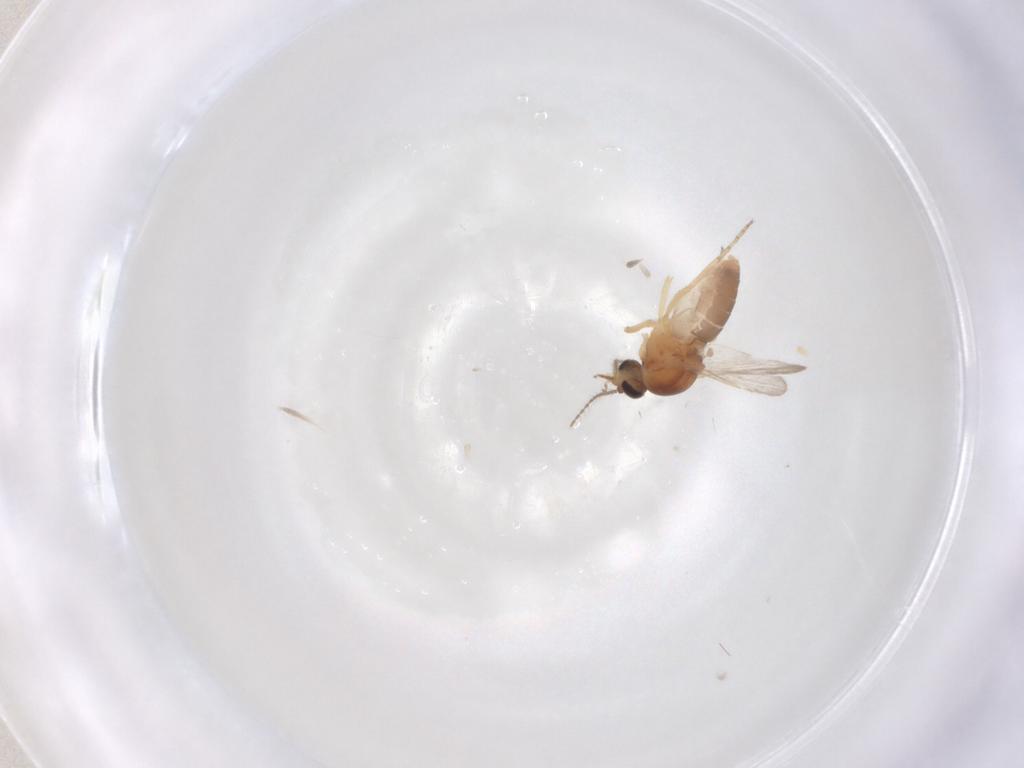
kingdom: Animalia
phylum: Arthropoda
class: Insecta
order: Diptera
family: Ceratopogonidae
